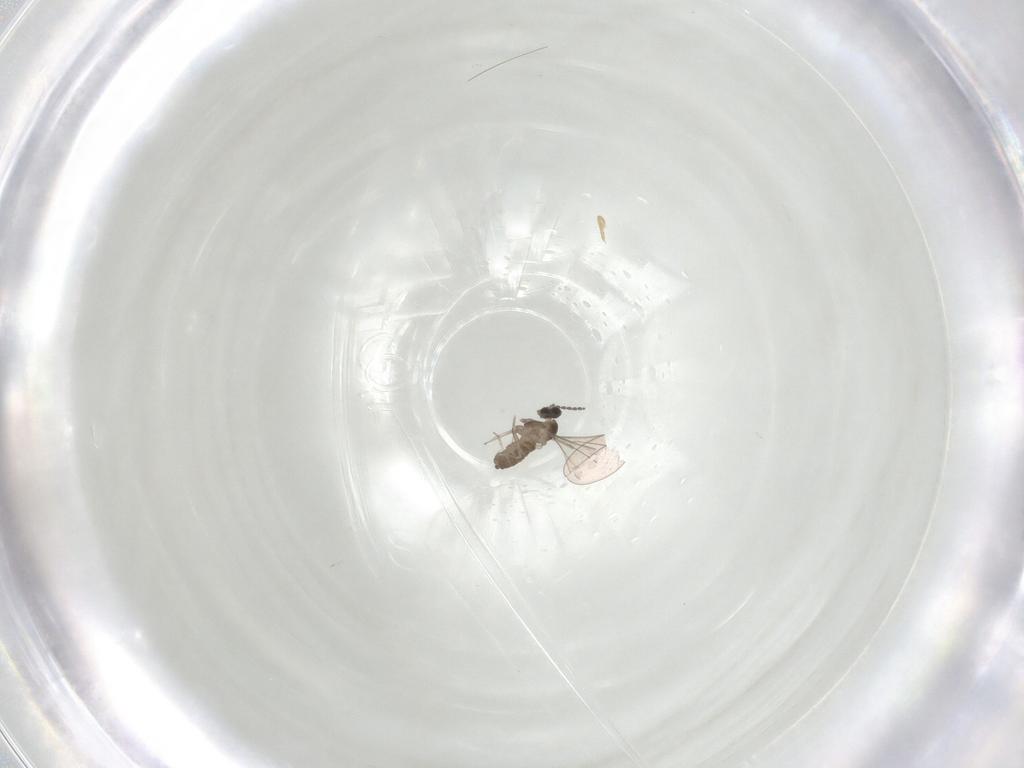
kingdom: Animalia
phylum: Arthropoda
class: Insecta
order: Diptera
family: Cecidomyiidae
